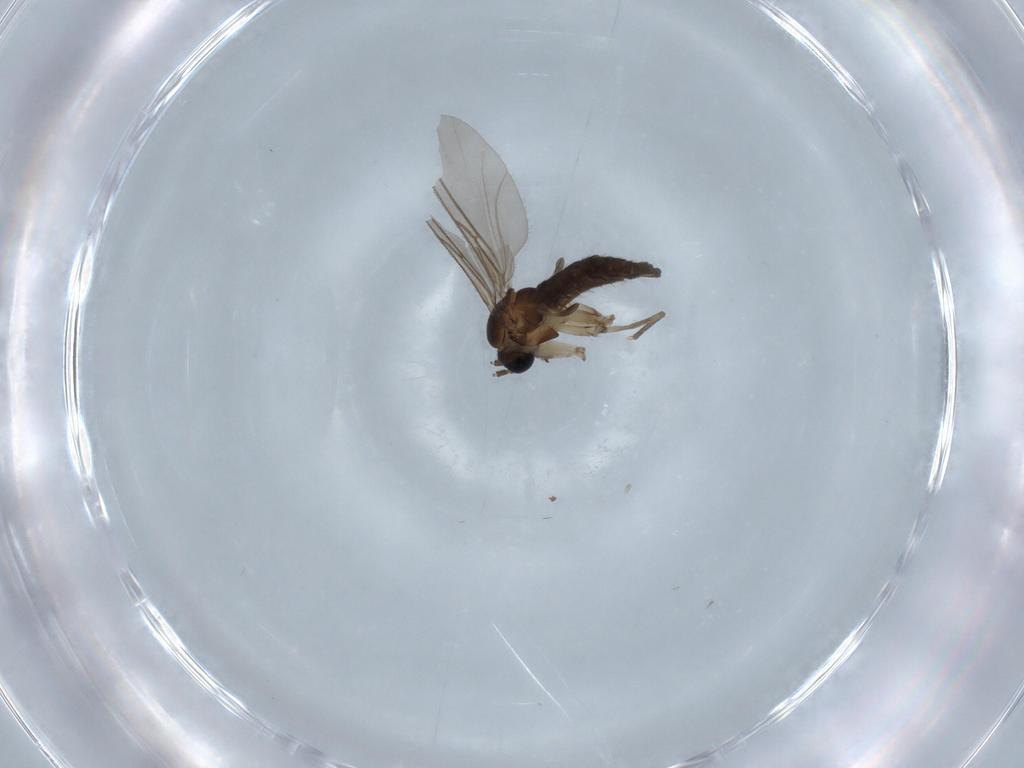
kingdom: Animalia
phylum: Arthropoda
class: Insecta
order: Diptera
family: Sciaridae
